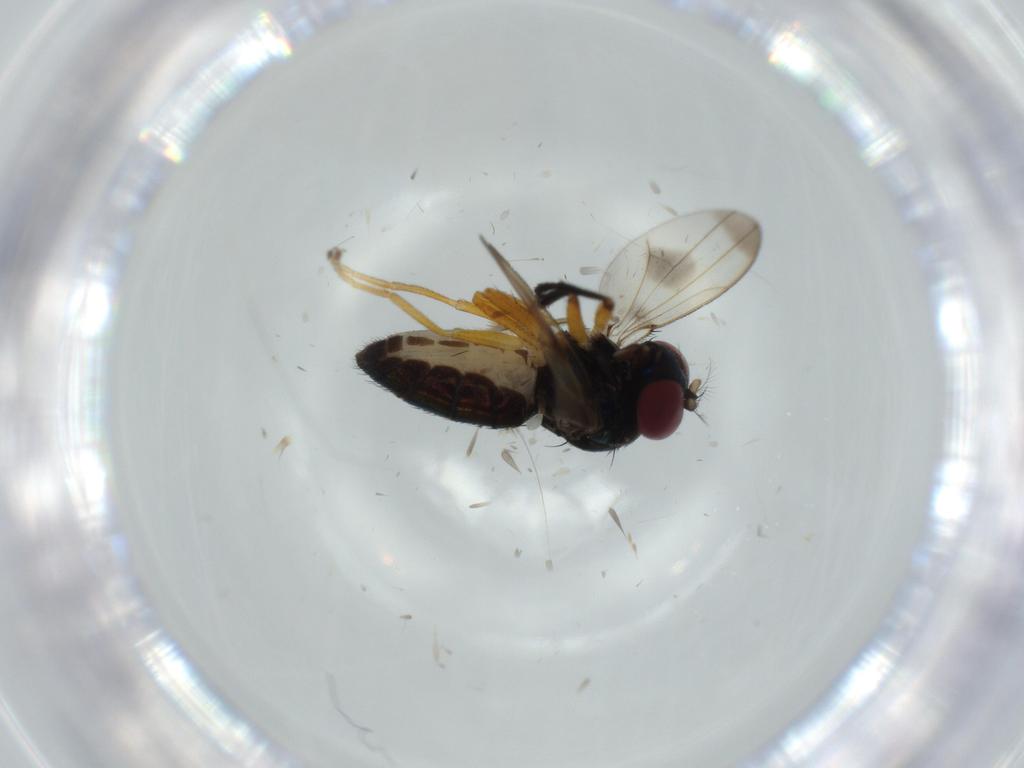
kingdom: Animalia
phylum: Arthropoda
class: Insecta
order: Diptera
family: Ephydridae
